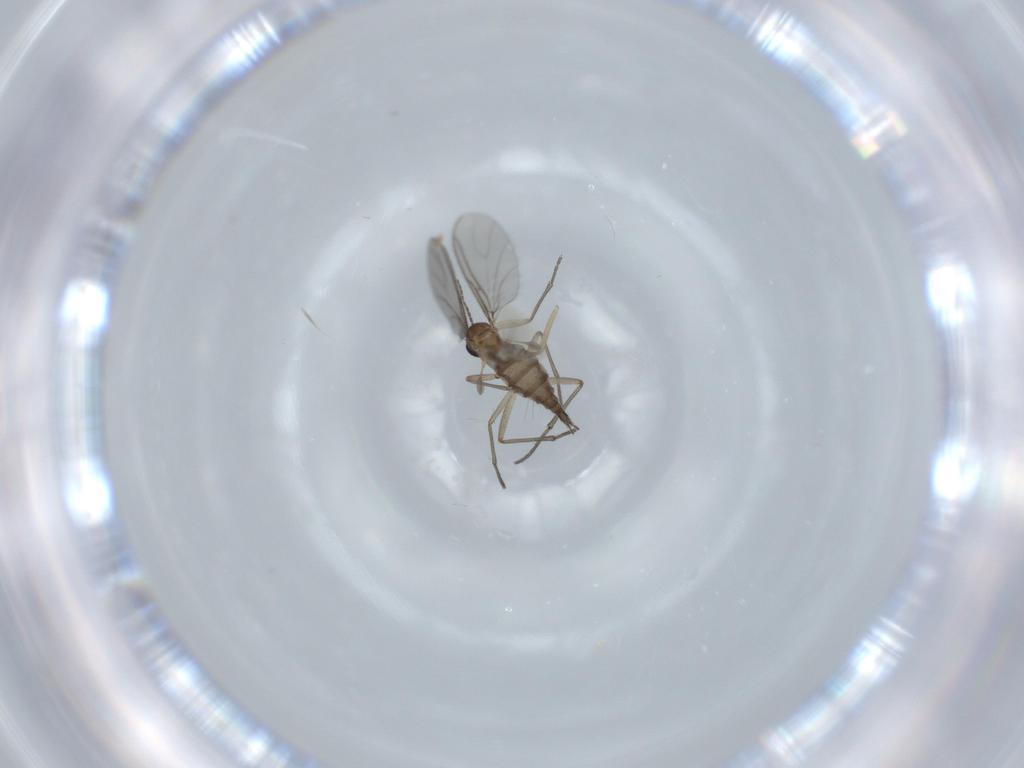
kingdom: Animalia
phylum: Arthropoda
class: Insecta
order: Diptera
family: Sciaridae
